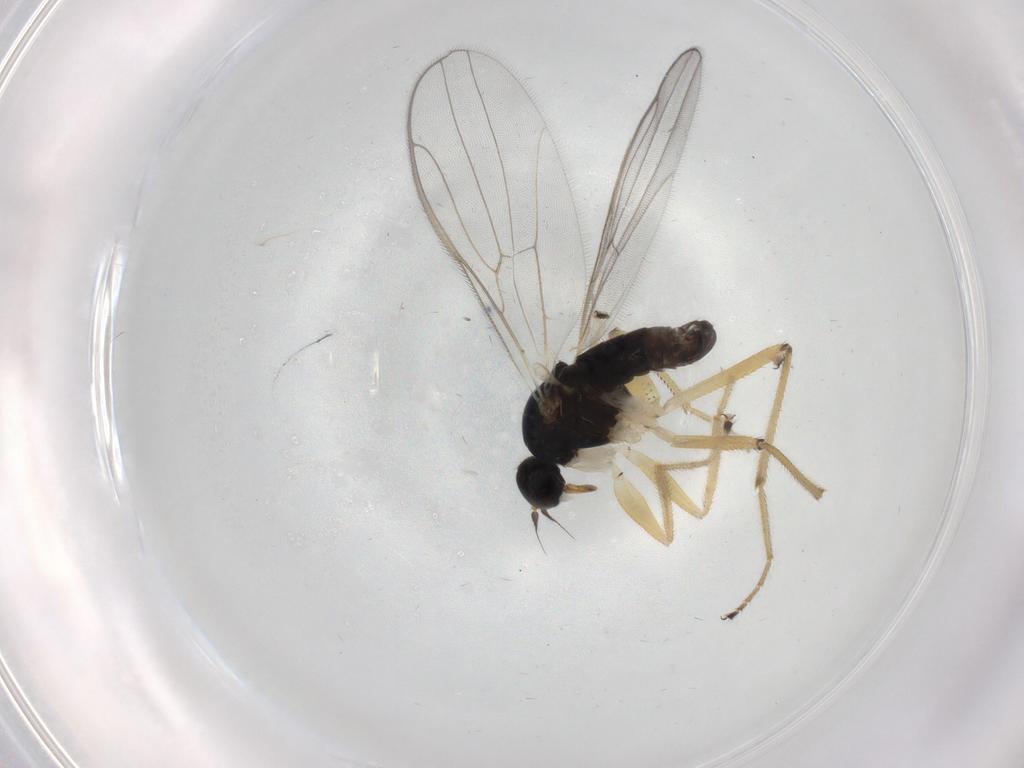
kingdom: Animalia
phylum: Arthropoda
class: Insecta
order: Diptera
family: Hybotidae
